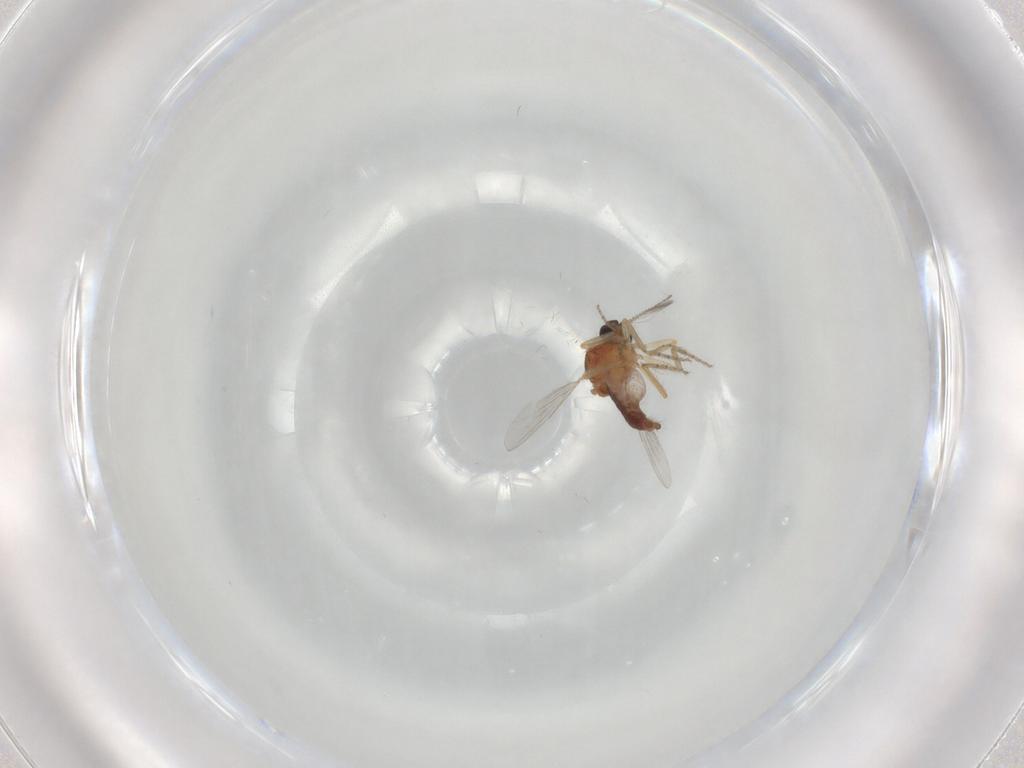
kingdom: Animalia
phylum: Arthropoda
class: Insecta
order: Diptera
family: Ceratopogonidae
